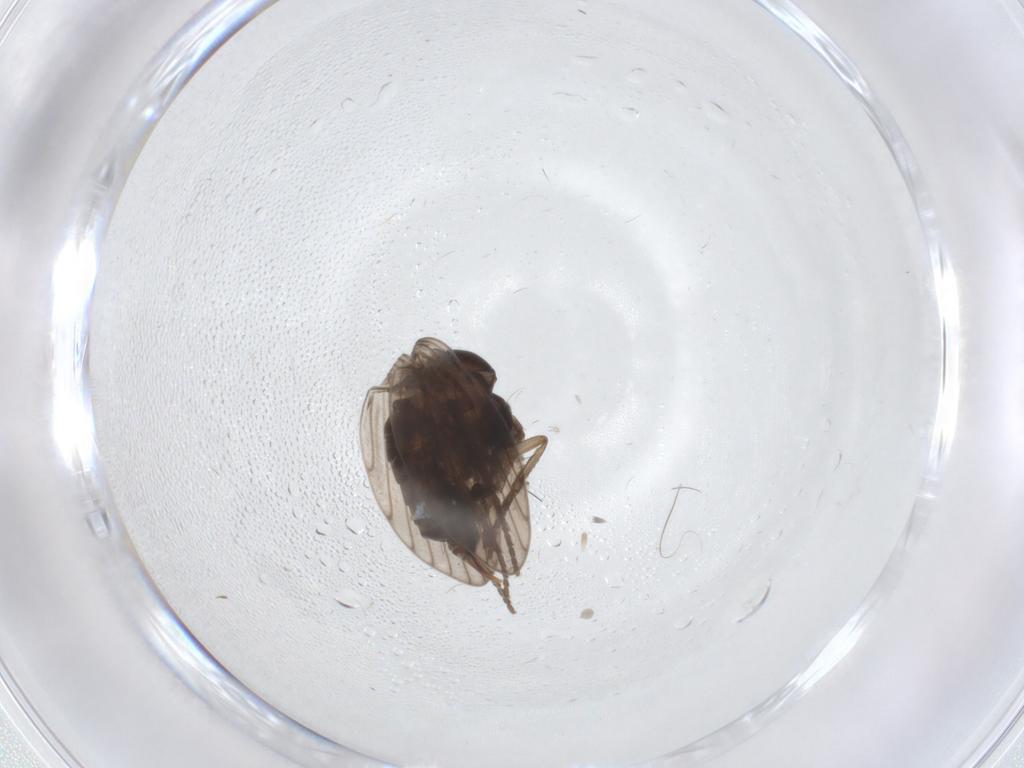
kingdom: Animalia
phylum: Arthropoda
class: Insecta
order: Diptera
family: Psychodidae
